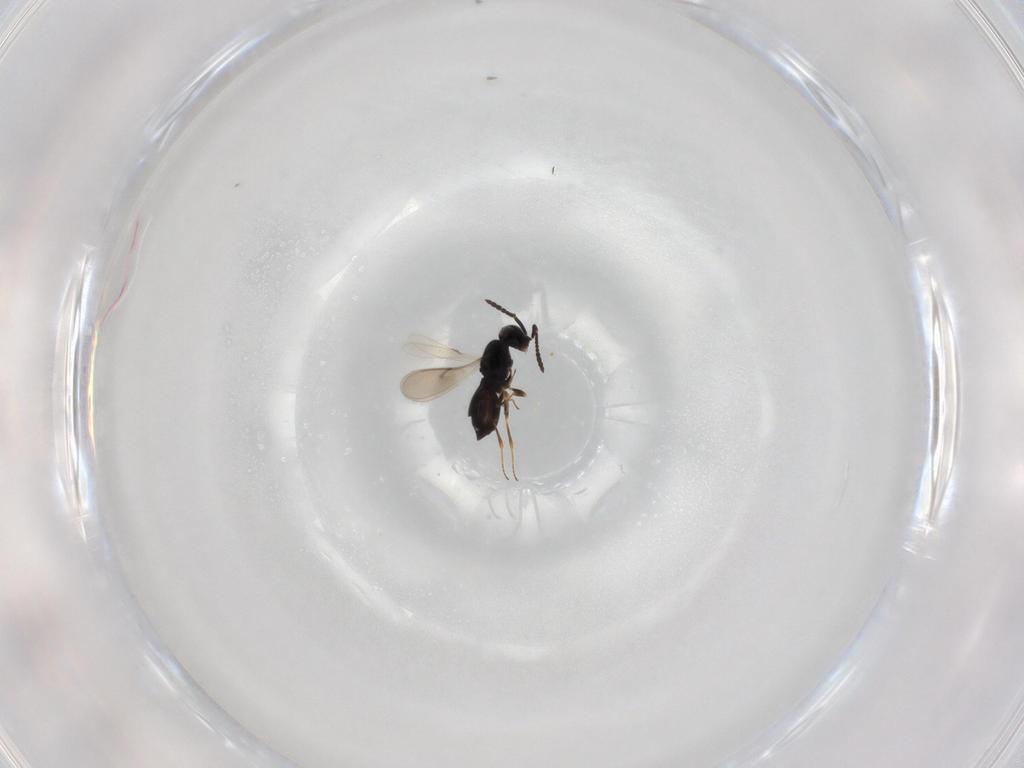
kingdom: Animalia
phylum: Arthropoda
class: Insecta
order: Hymenoptera
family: Scelionidae
